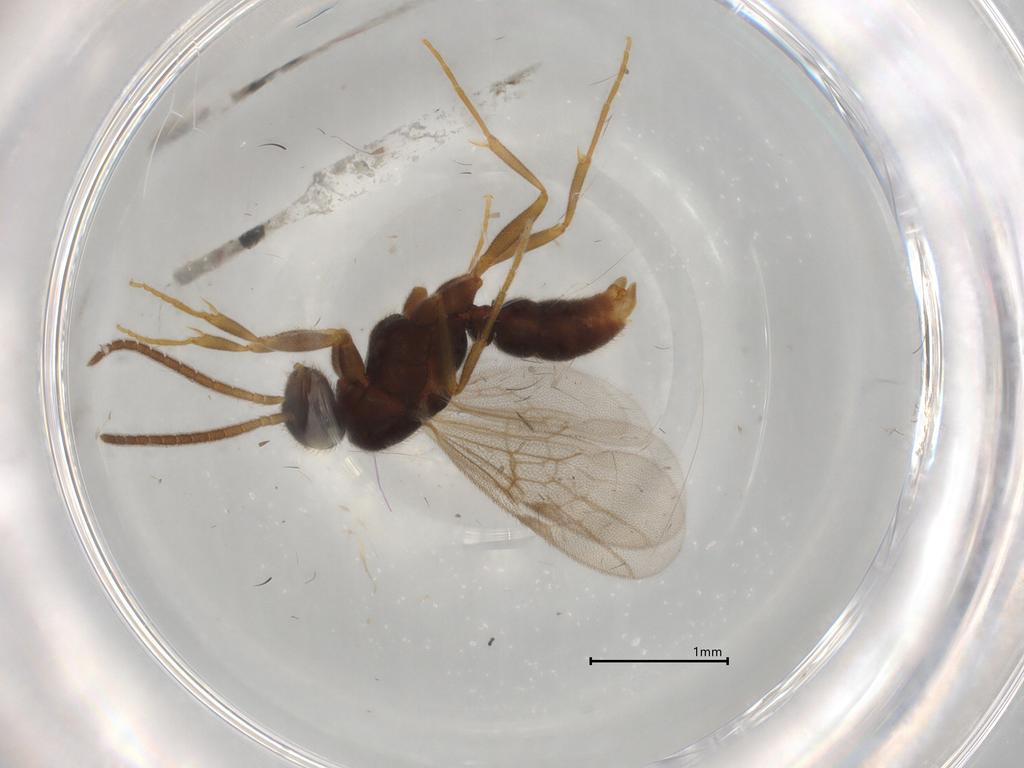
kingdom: Animalia
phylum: Arthropoda
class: Insecta
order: Hymenoptera
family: Formicidae
